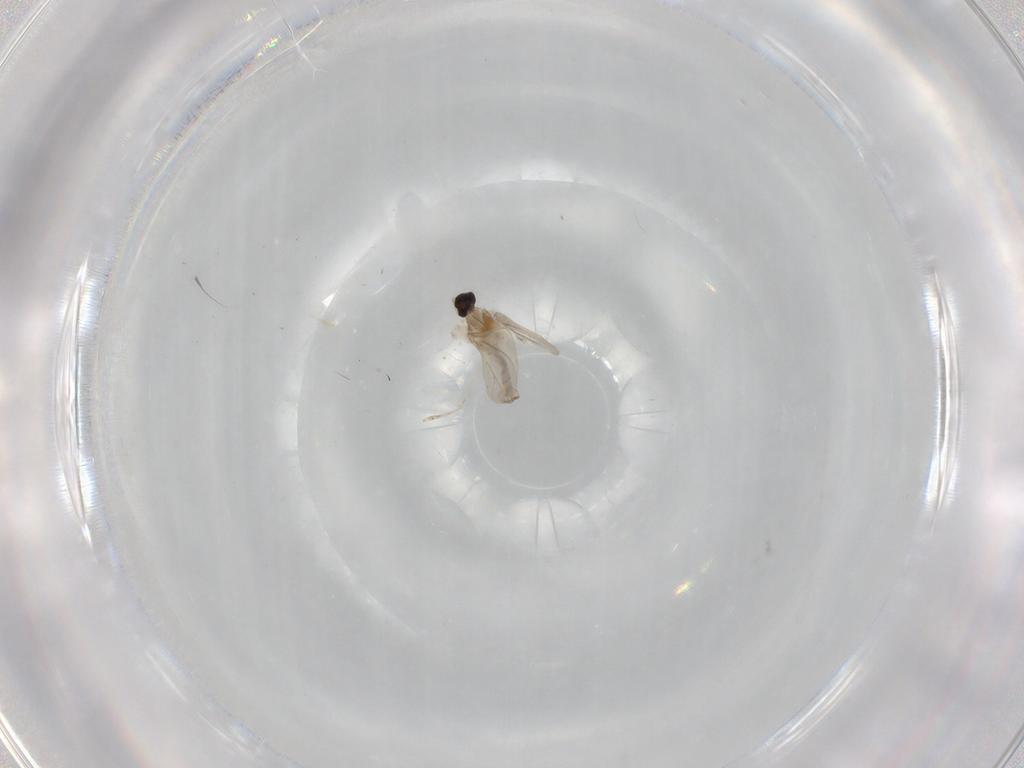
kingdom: Animalia
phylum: Arthropoda
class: Insecta
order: Diptera
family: Cecidomyiidae
